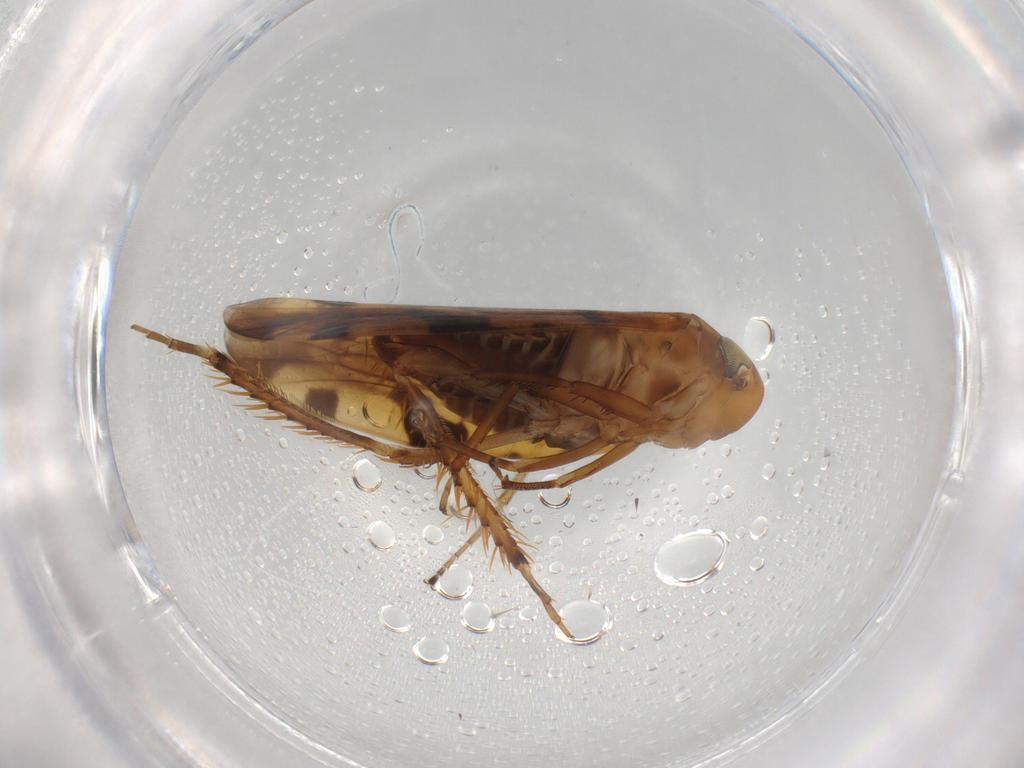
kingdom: Animalia
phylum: Arthropoda
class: Insecta
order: Hemiptera
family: Cicadellidae
